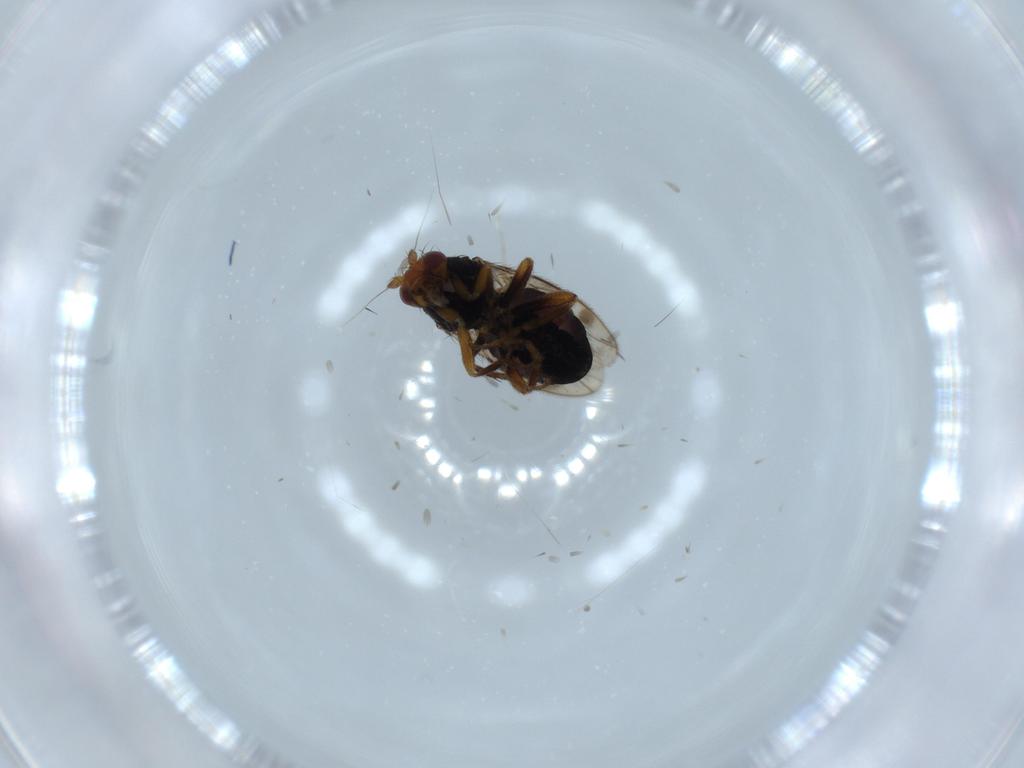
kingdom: Animalia
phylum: Arthropoda
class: Insecta
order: Diptera
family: Sphaeroceridae
